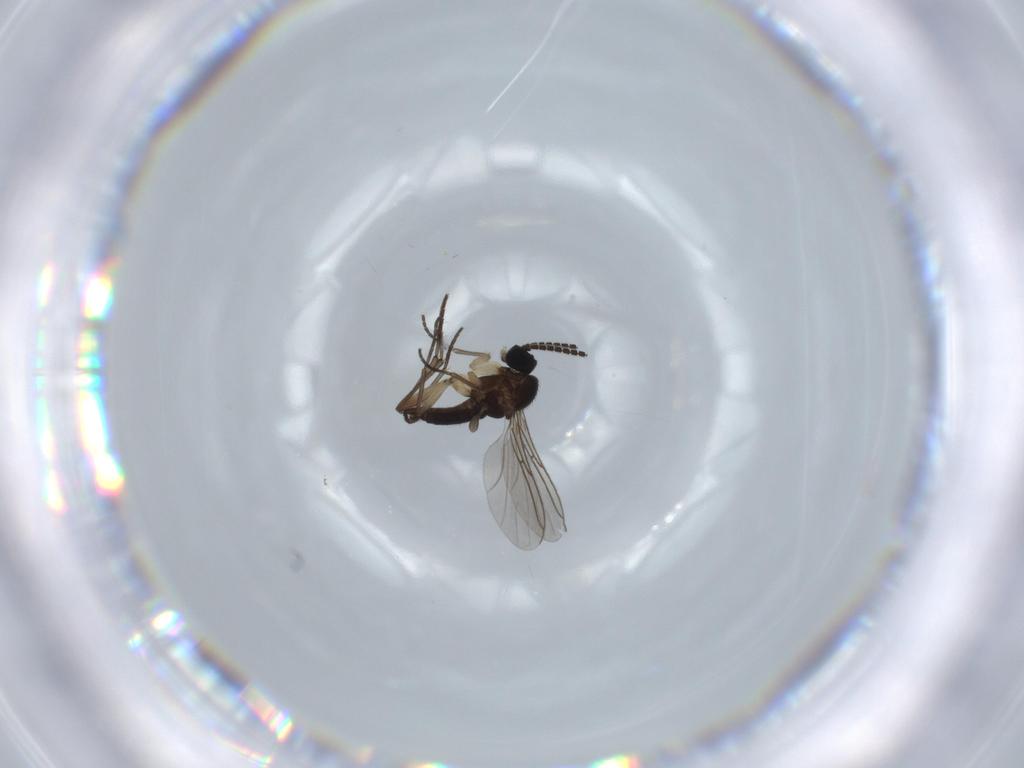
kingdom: Animalia
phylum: Arthropoda
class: Insecta
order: Diptera
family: Sciaridae
